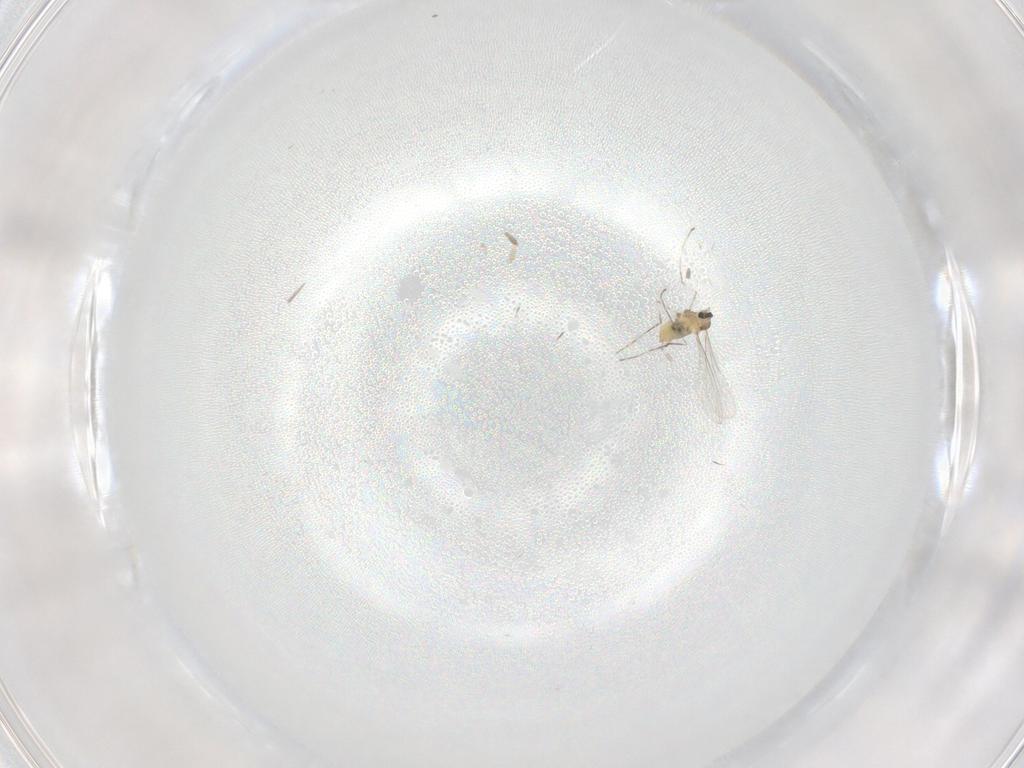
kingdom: Animalia
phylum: Arthropoda
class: Insecta
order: Diptera
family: Cecidomyiidae
